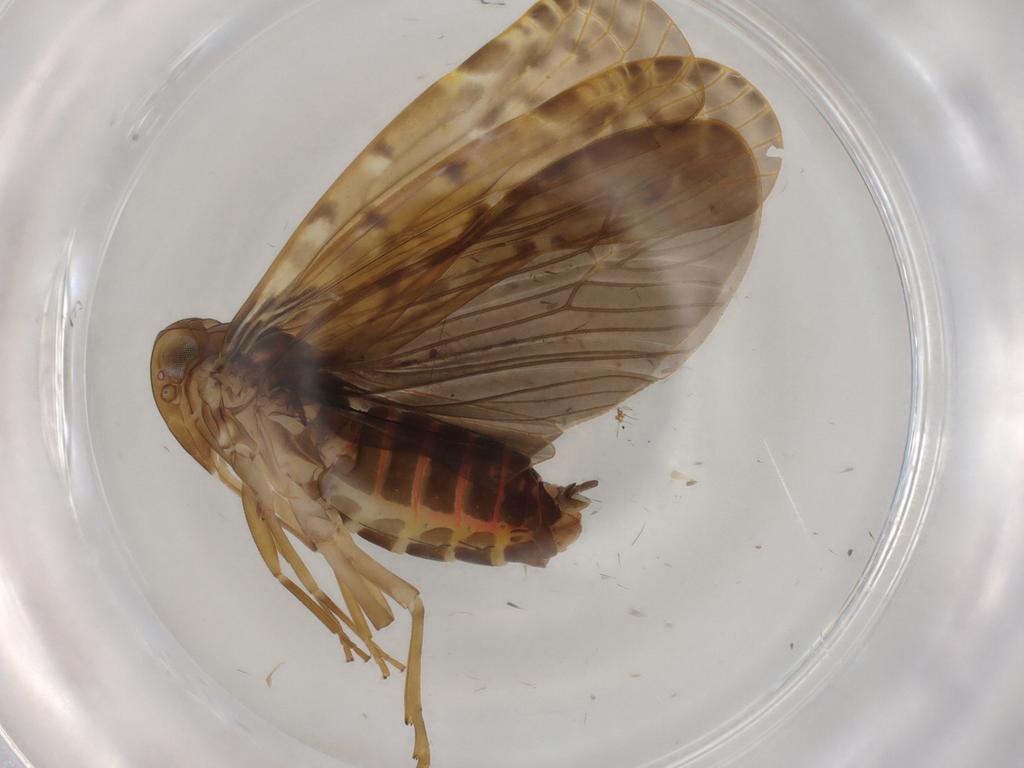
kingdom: Animalia
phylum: Arthropoda
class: Insecta
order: Hemiptera
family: Achilidae
